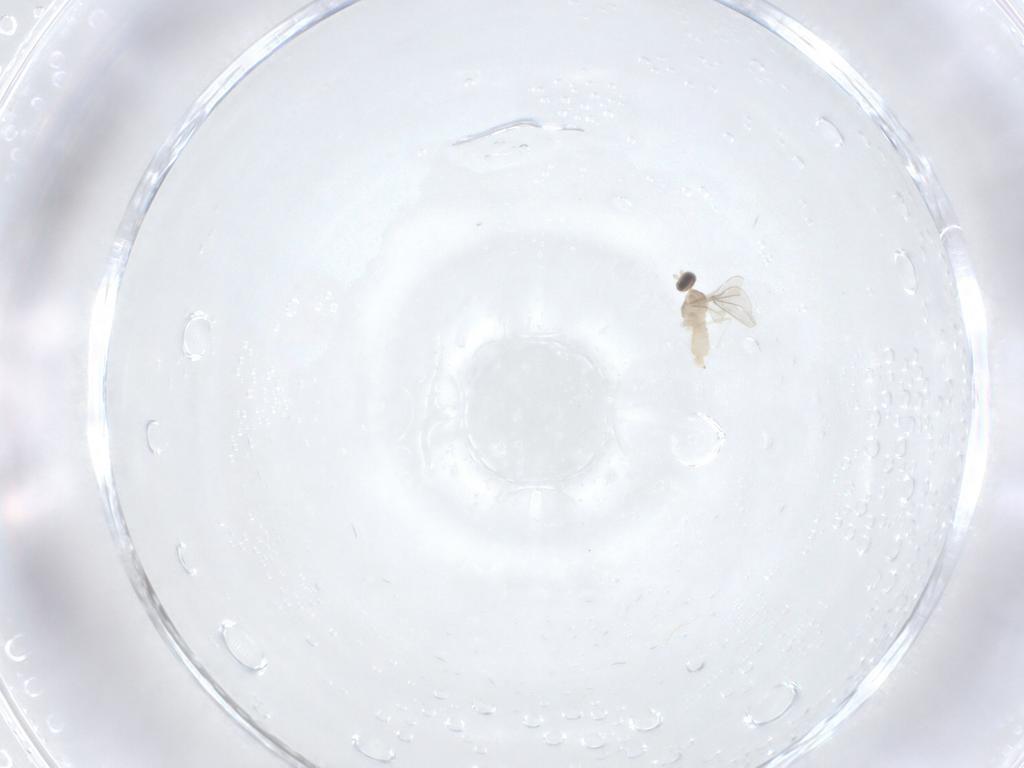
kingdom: Animalia
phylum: Arthropoda
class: Insecta
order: Diptera
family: Cecidomyiidae
